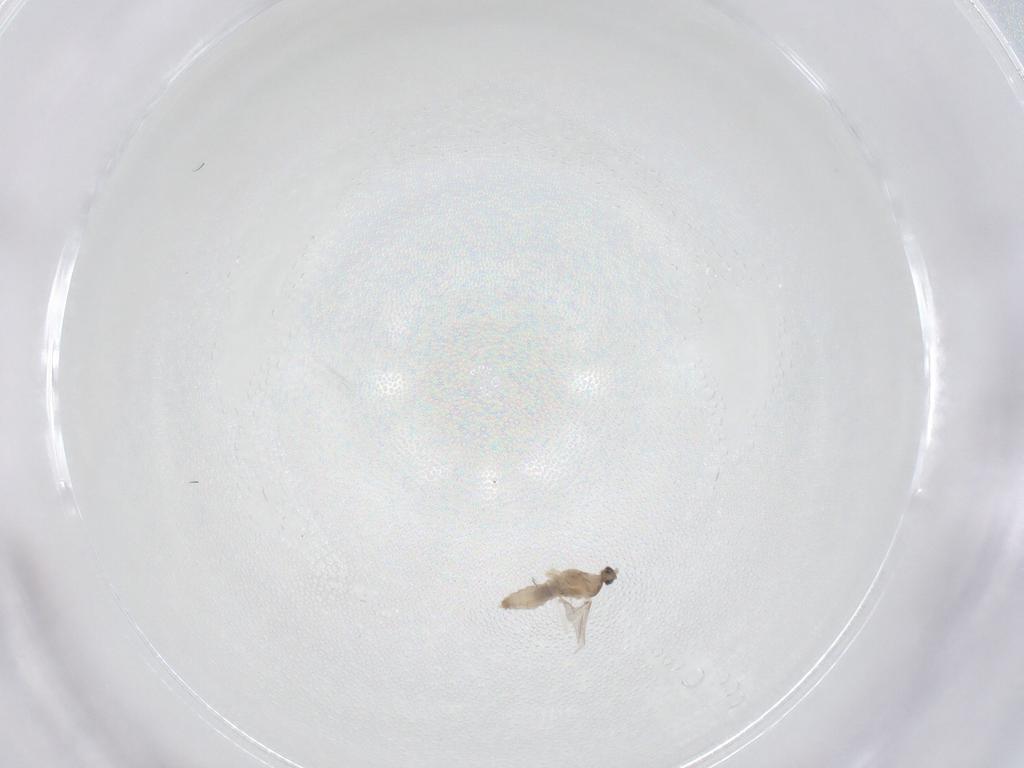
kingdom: Animalia
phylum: Arthropoda
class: Insecta
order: Diptera
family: Cecidomyiidae
